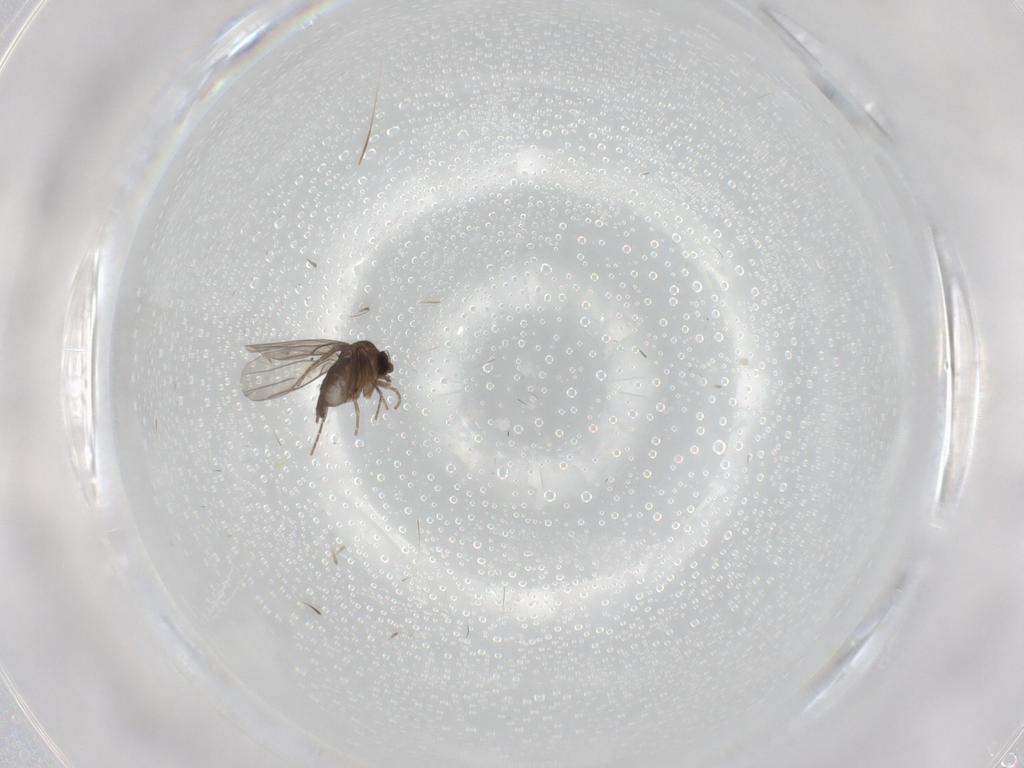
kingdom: Animalia
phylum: Arthropoda
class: Insecta
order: Diptera
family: Phoridae
